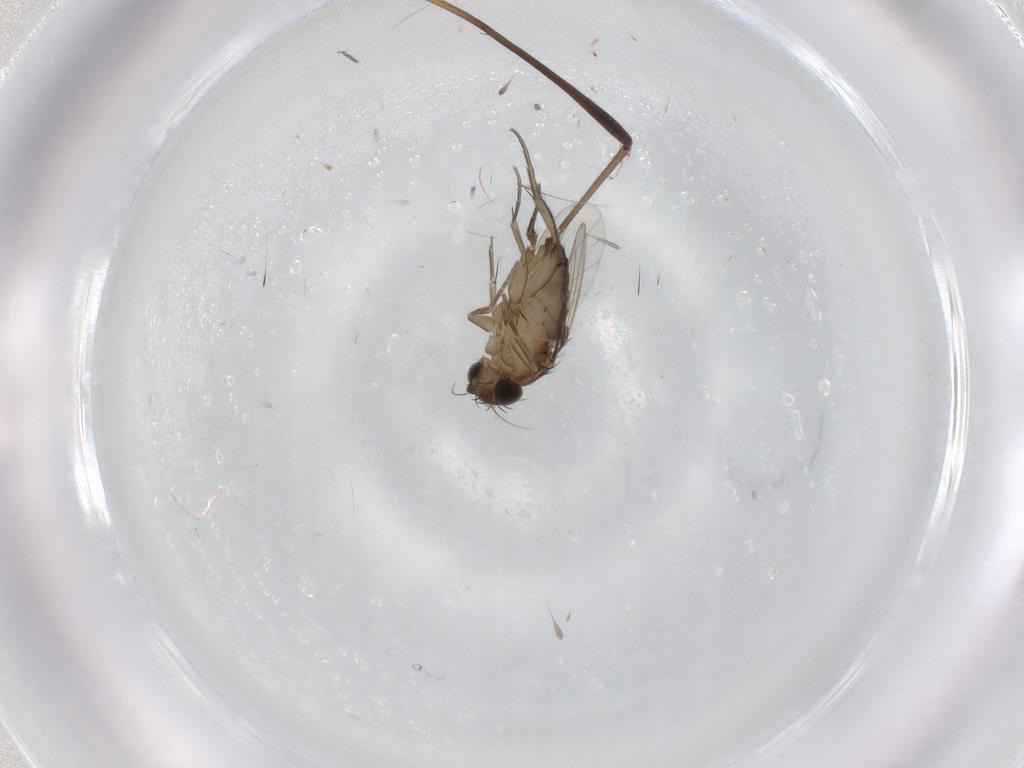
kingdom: Animalia
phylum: Arthropoda
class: Insecta
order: Diptera
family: Limoniidae
